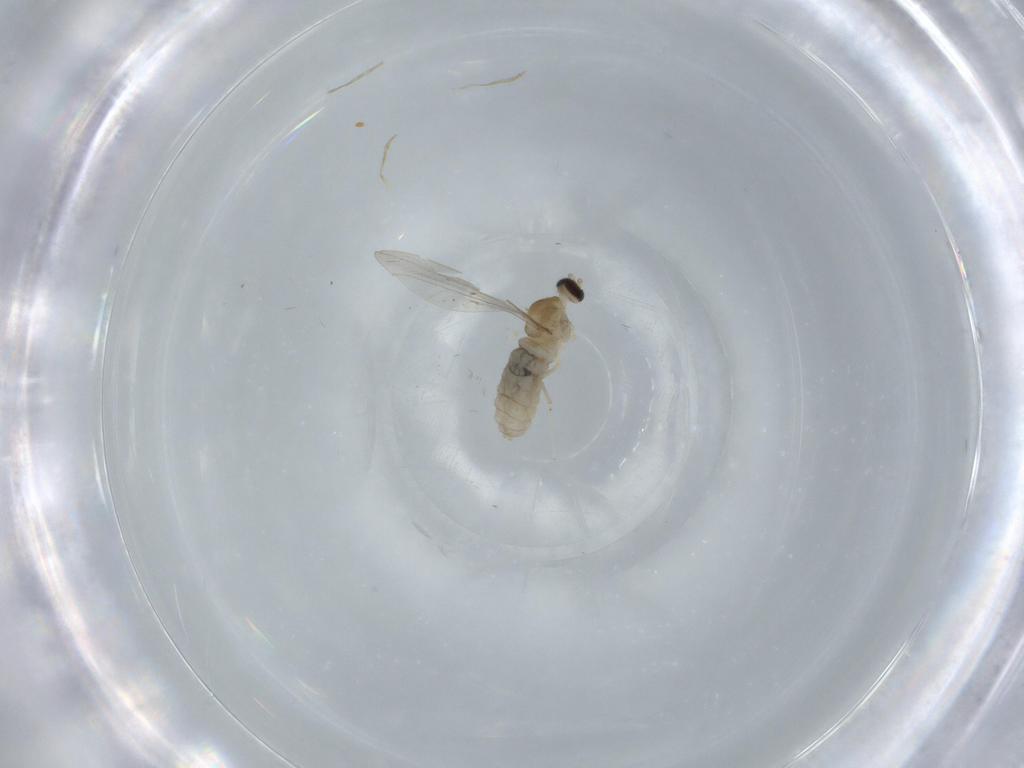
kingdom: Animalia
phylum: Arthropoda
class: Insecta
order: Diptera
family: Cecidomyiidae
